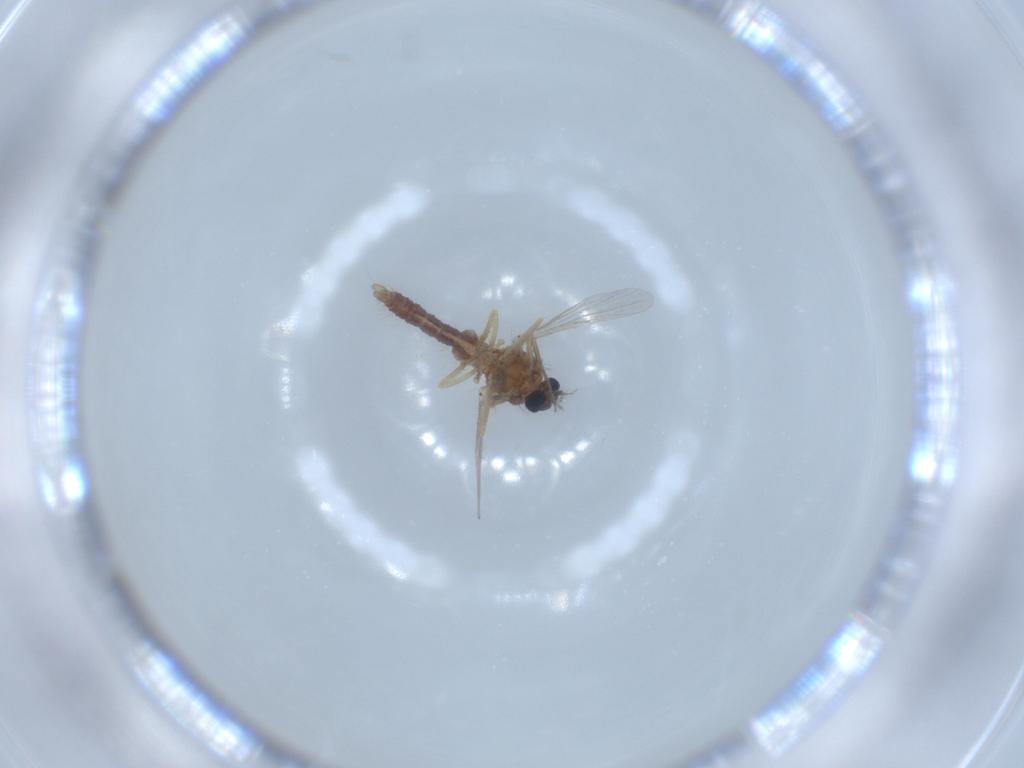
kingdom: Animalia
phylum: Arthropoda
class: Insecta
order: Diptera
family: Ceratopogonidae
